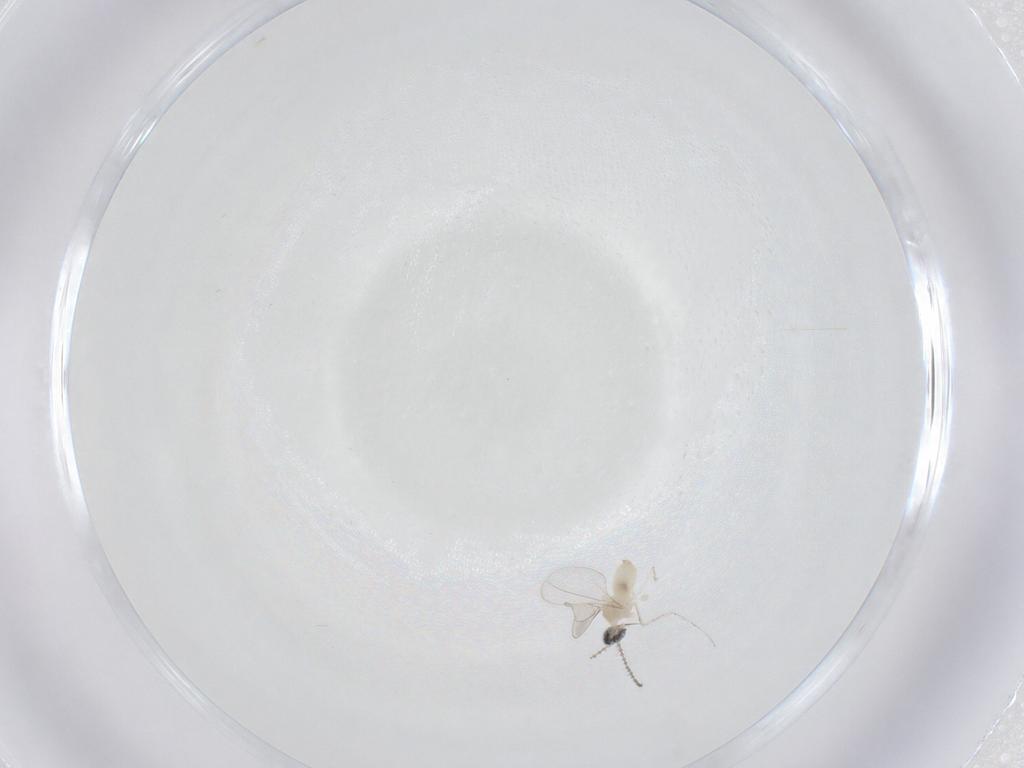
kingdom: Animalia
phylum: Arthropoda
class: Insecta
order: Diptera
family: Cecidomyiidae
